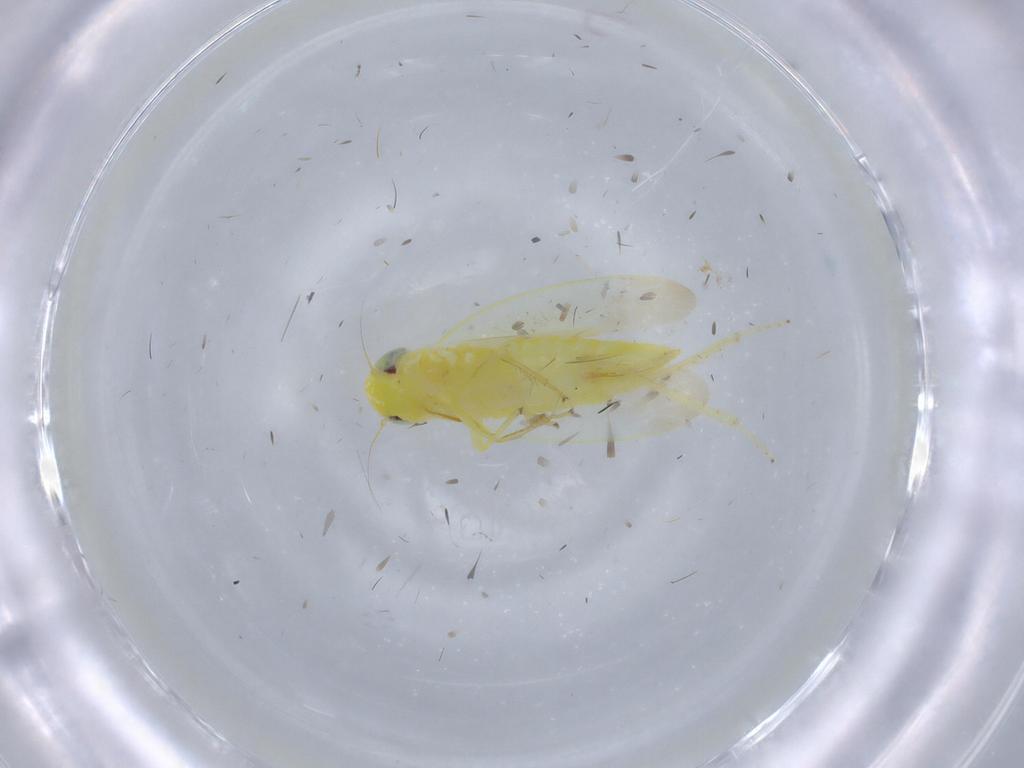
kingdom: Animalia
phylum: Arthropoda
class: Insecta
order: Hemiptera
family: Cicadellidae
